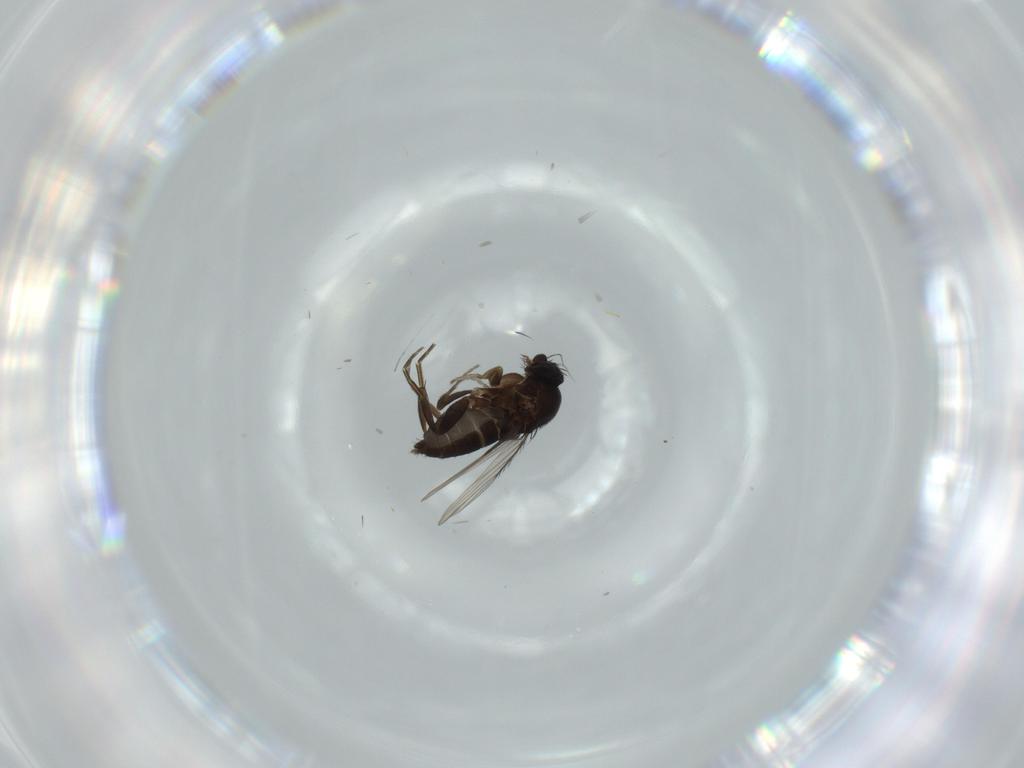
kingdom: Animalia
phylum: Arthropoda
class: Insecta
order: Diptera
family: Phoridae
